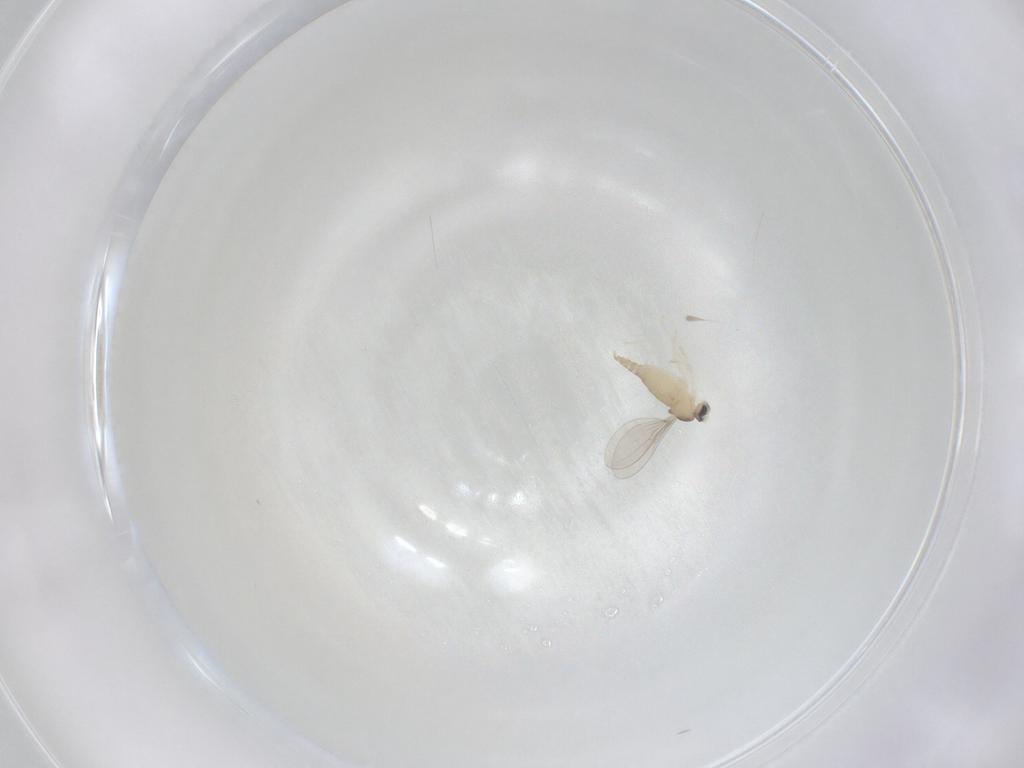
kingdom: Animalia
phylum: Arthropoda
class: Insecta
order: Diptera
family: Cecidomyiidae
